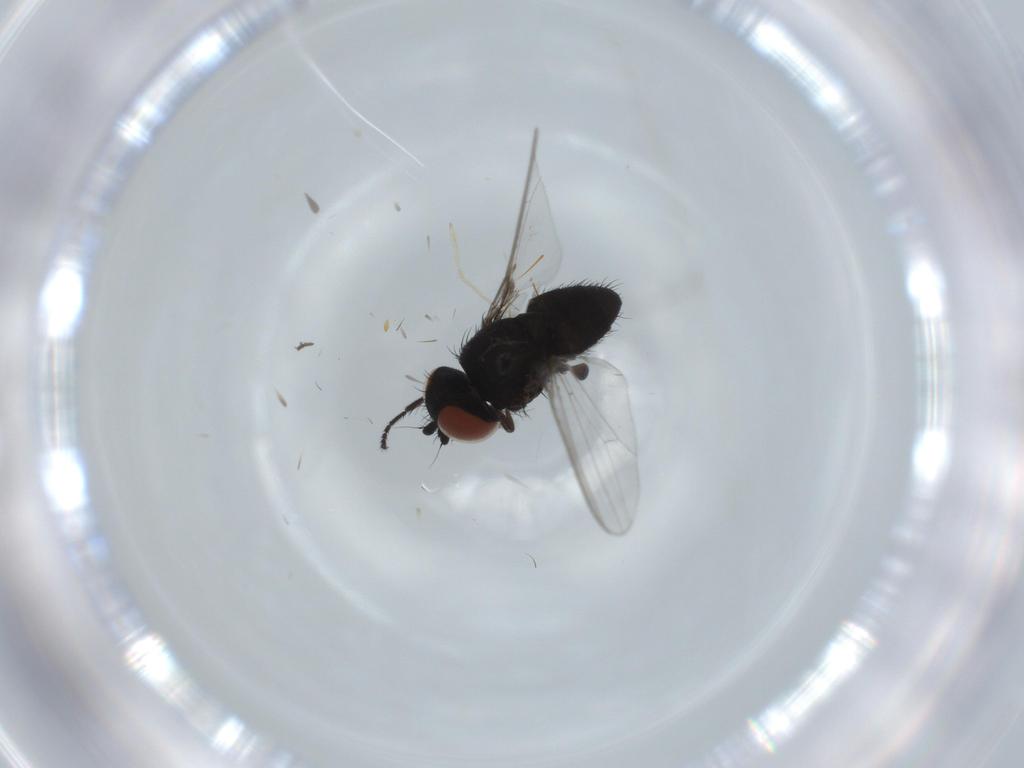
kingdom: Animalia
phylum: Arthropoda
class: Insecta
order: Diptera
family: Milichiidae
